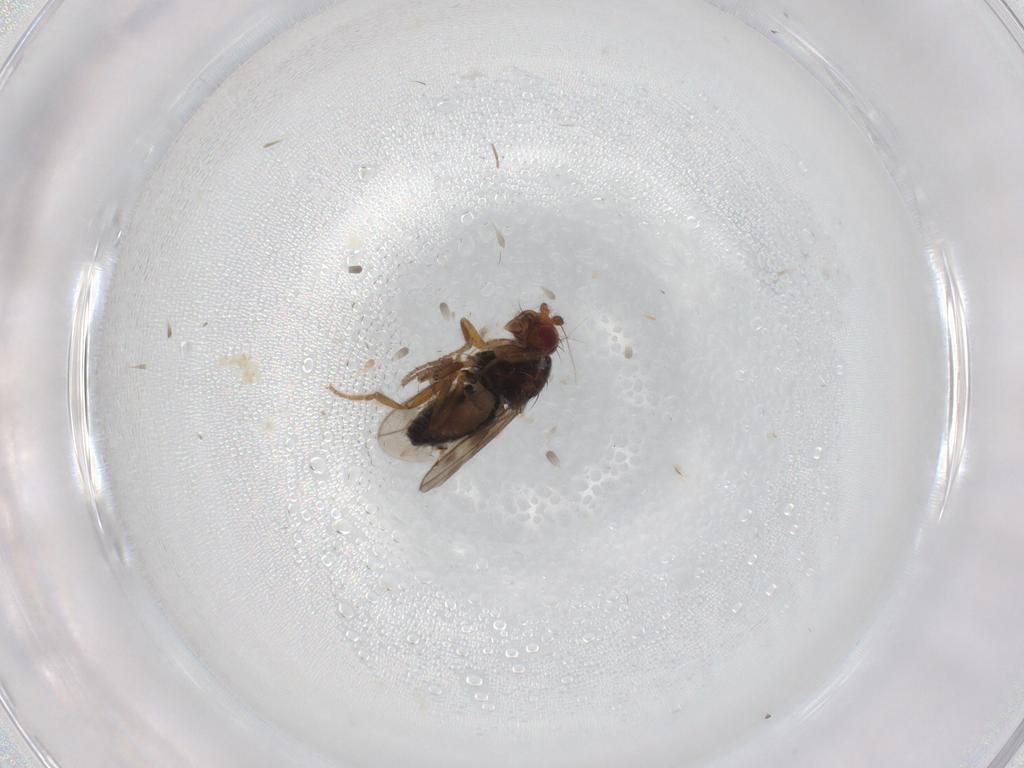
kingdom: Animalia
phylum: Arthropoda
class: Insecta
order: Diptera
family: Sphaeroceridae
